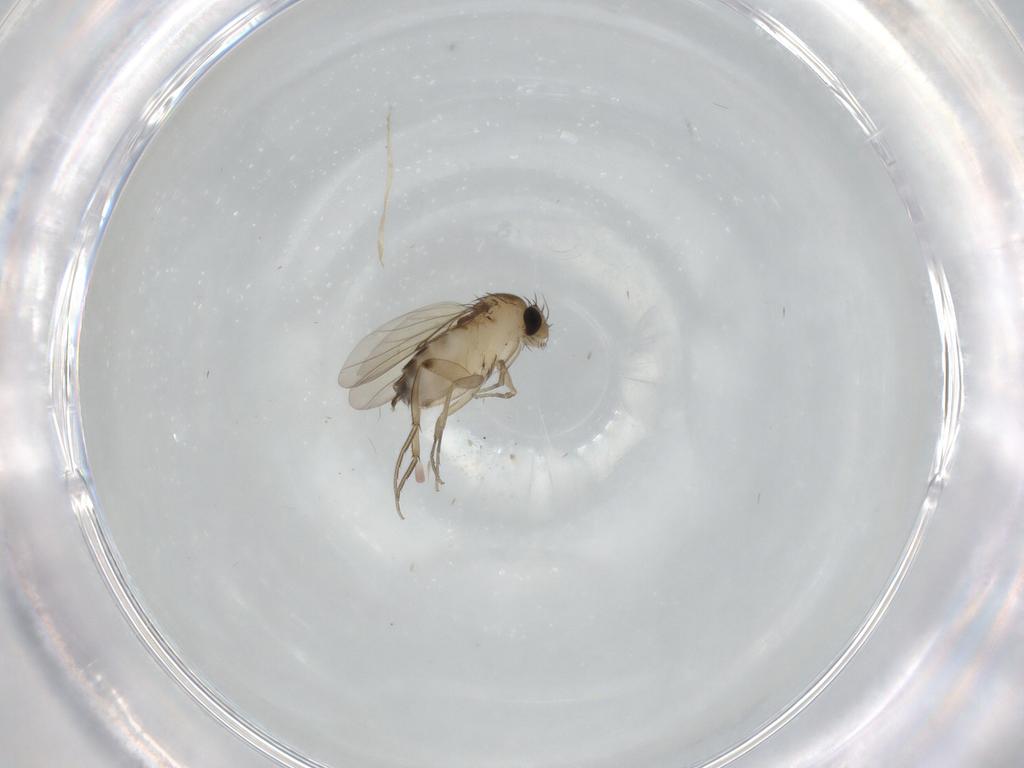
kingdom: Animalia
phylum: Arthropoda
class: Insecta
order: Diptera
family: Phoridae
